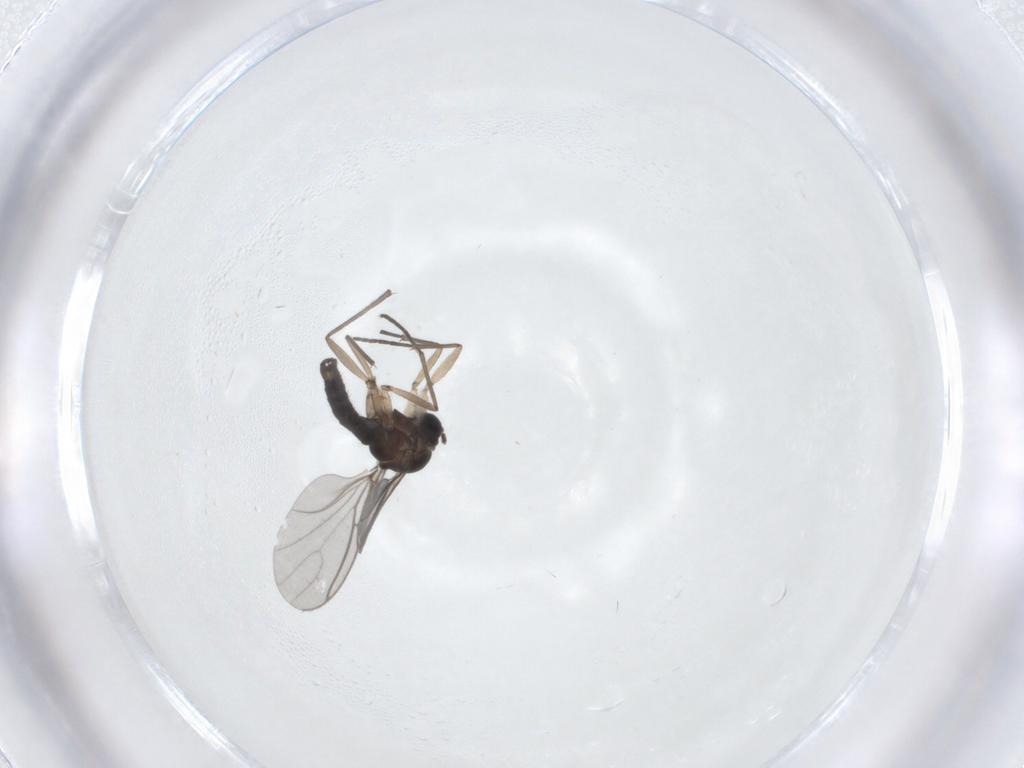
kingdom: Animalia
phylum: Arthropoda
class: Insecta
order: Diptera
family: Sciaridae
